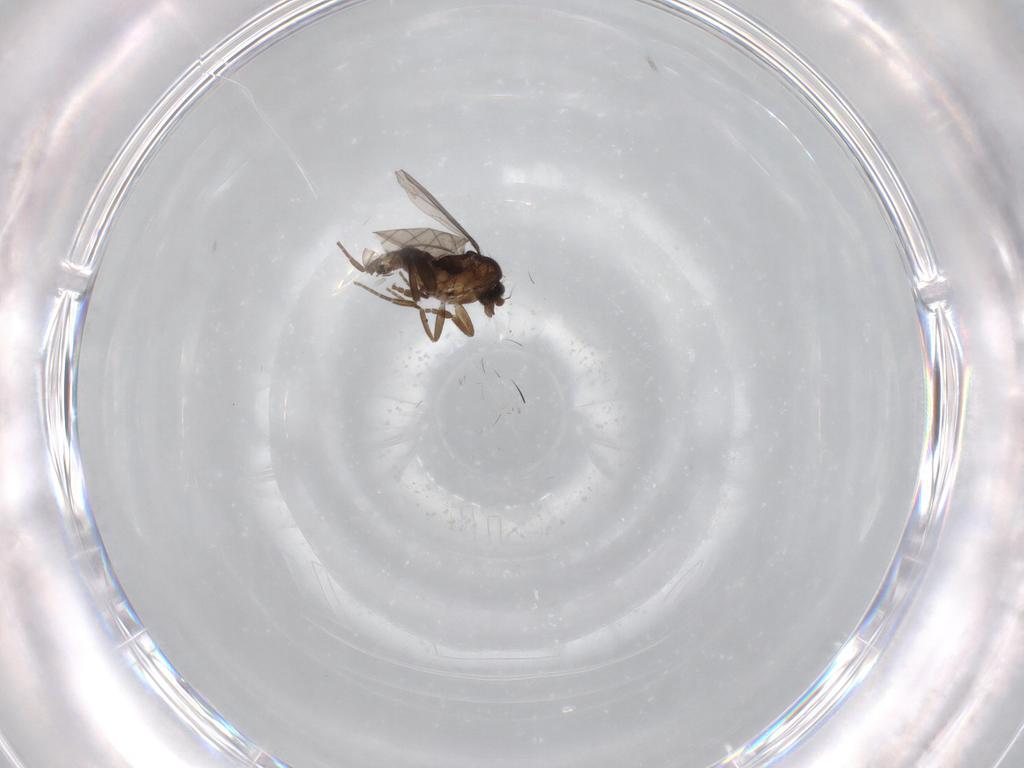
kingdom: Animalia
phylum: Arthropoda
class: Insecta
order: Diptera
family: Phoridae
